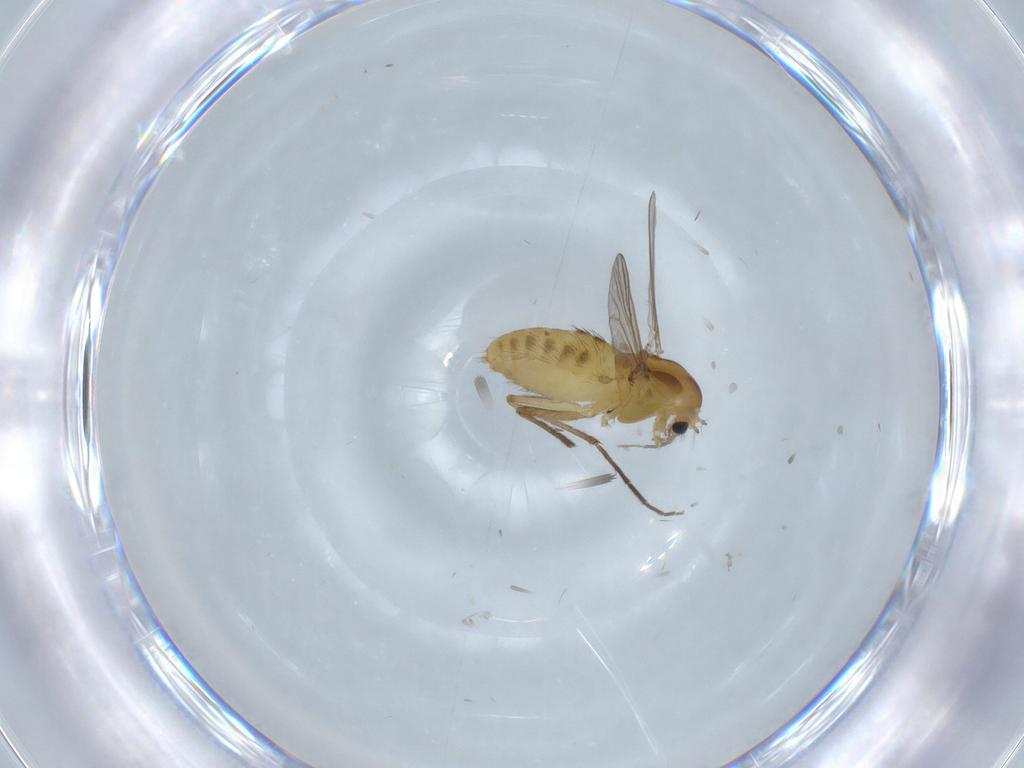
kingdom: Animalia
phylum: Arthropoda
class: Insecta
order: Diptera
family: Chironomidae
